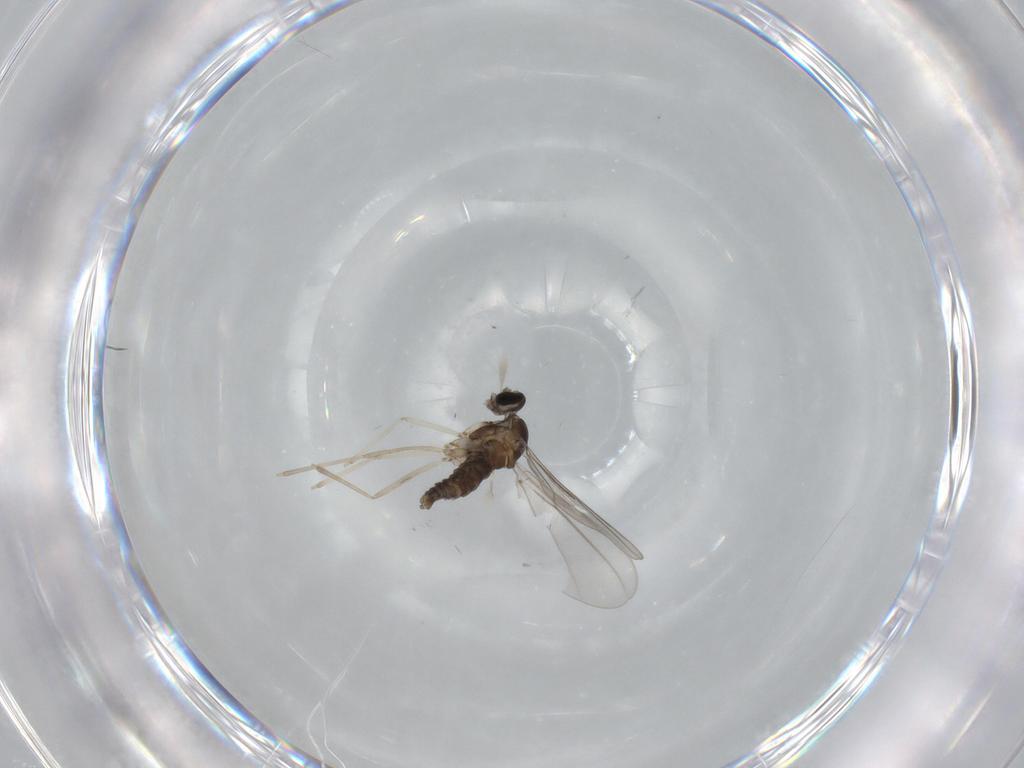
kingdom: Animalia
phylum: Arthropoda
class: Insecta
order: Diptera
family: Cecidomyiidae
